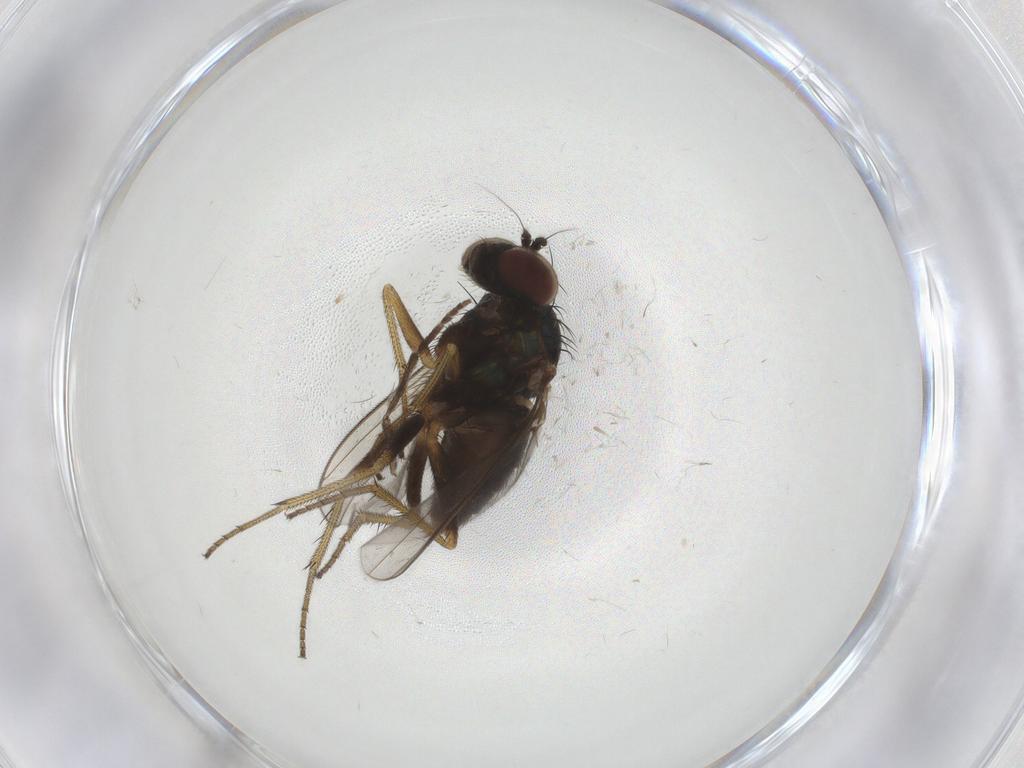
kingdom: Animalia
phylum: Arthropoda
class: Insecta
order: Diptera
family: Psychodidae
